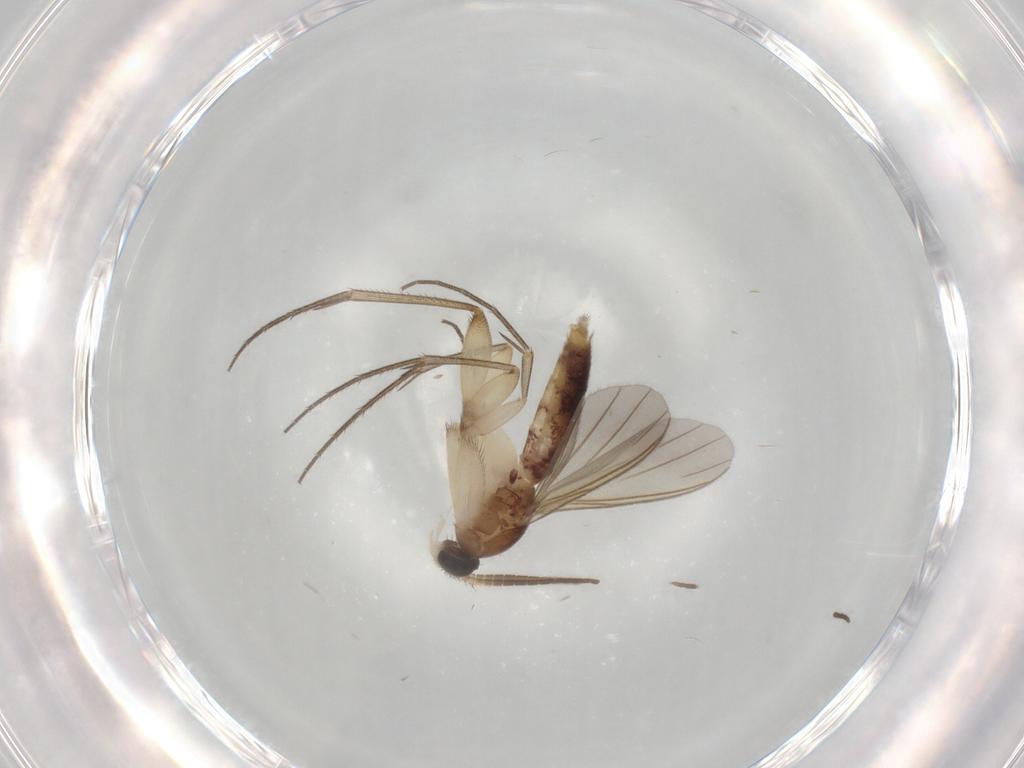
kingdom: Animalia
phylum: Arthropoda
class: Insecta
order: Diptera
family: Mycetophilidae
